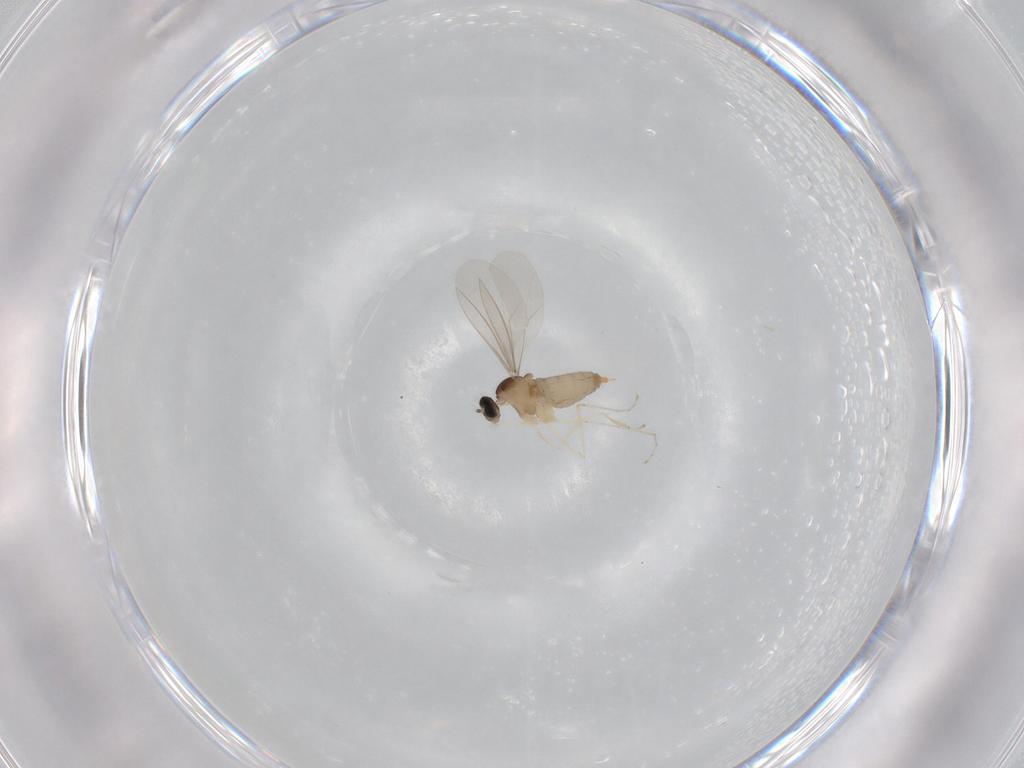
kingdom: Animalia
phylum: Arthropoda
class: Insecta
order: Diptera
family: Cecidomyiidae
